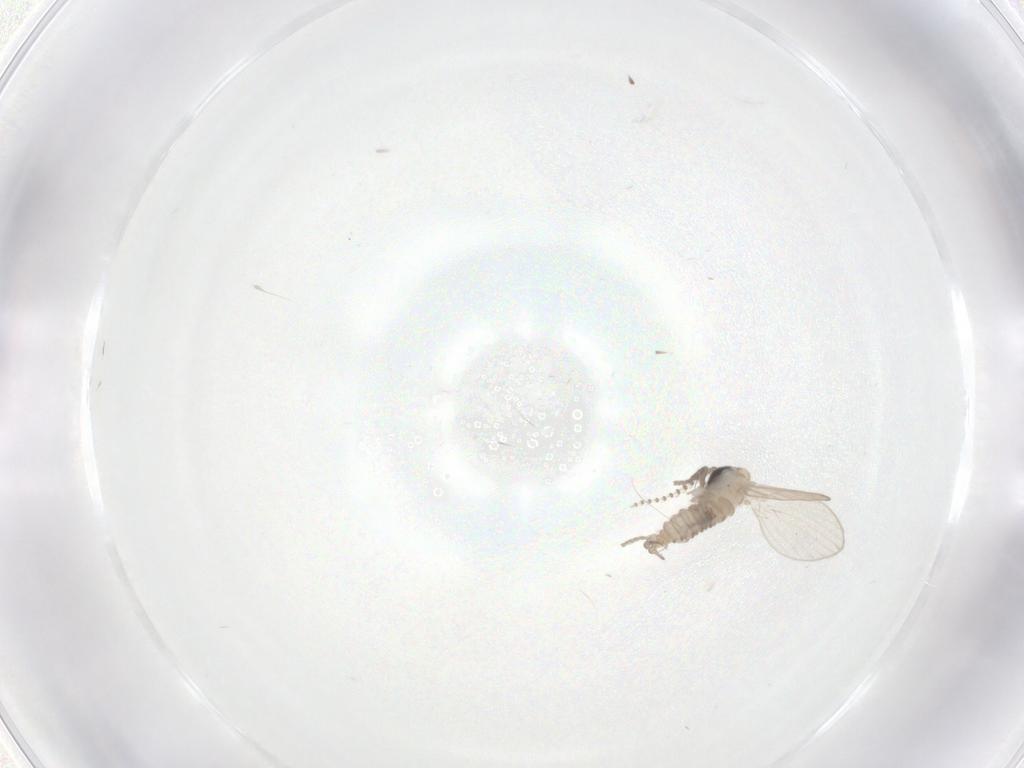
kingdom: Animalia
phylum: Arthropoda
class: Insecta
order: Diptera
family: Psychodidae
